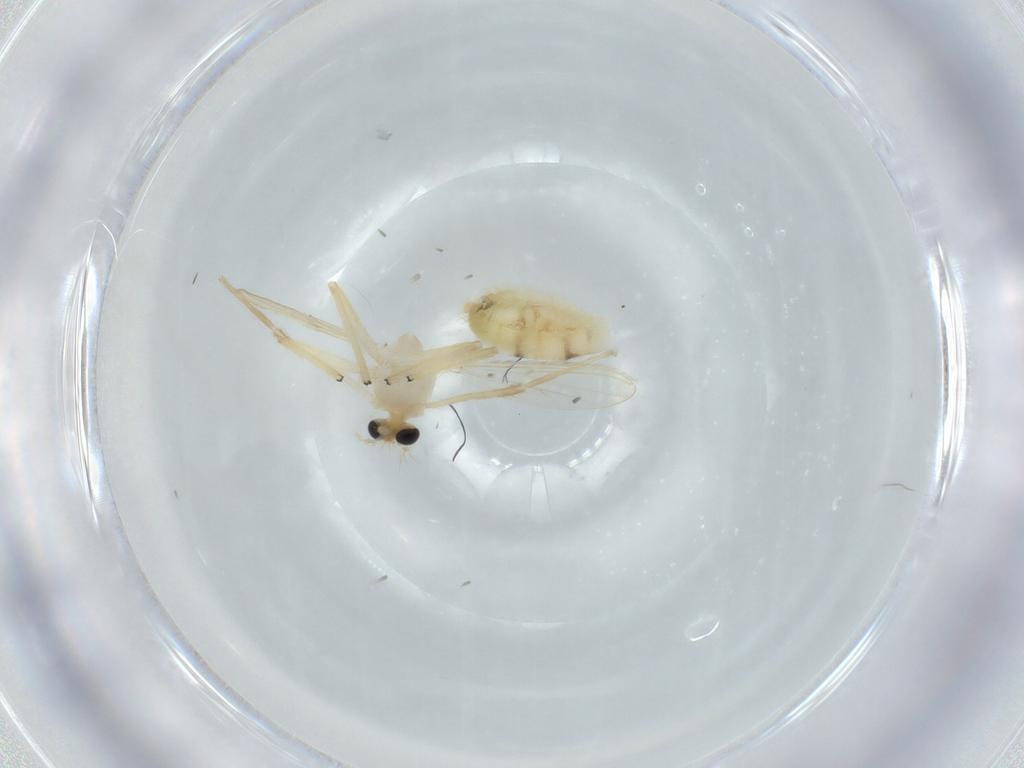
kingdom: Animalia
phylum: Arthropoda
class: Insecta
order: Diptera
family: Chironomidae
